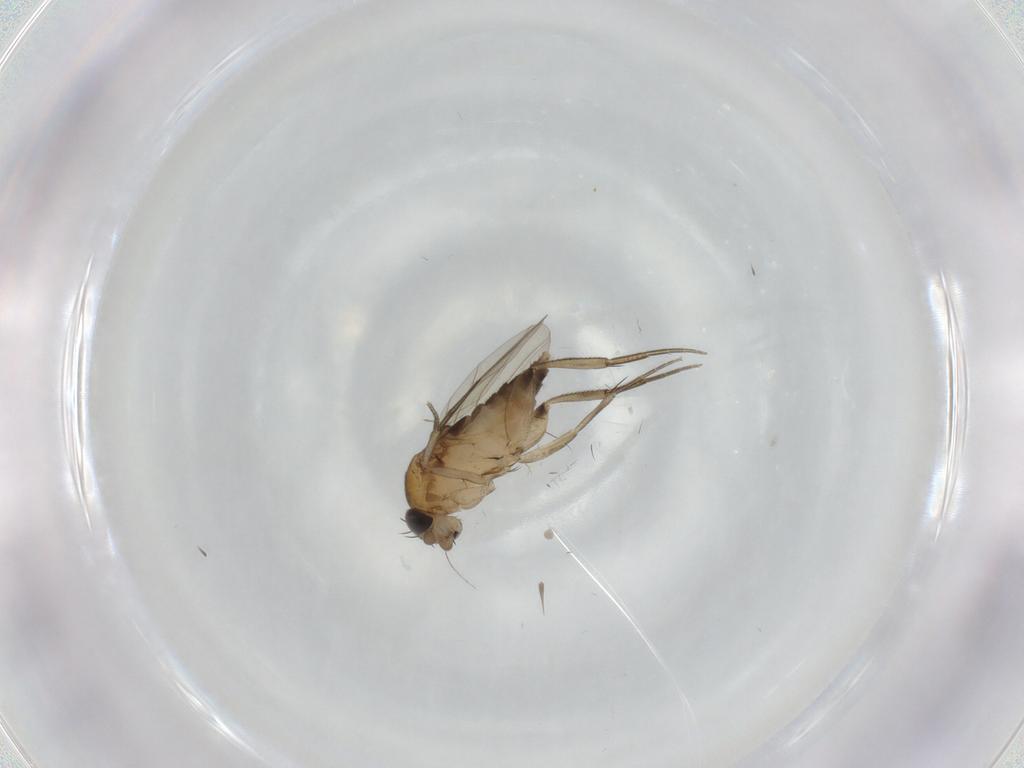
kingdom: Animalia
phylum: Arthropoda
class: Insecta
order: Diptera
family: Phoridae
